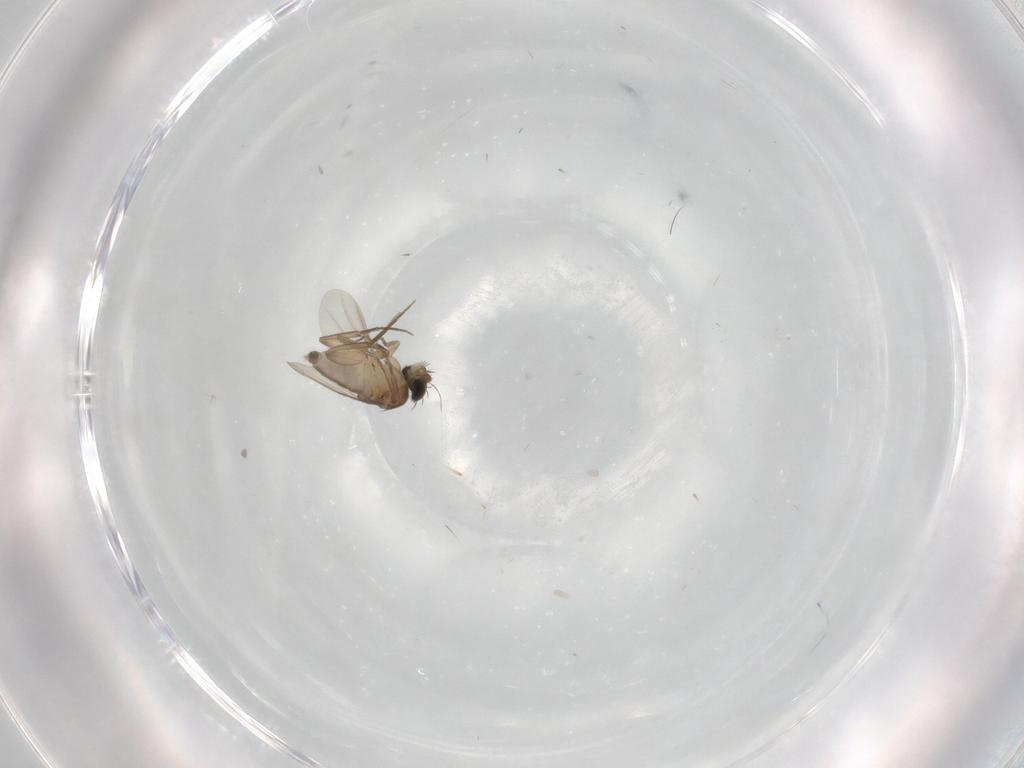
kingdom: Animalia
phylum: Arthropoda
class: Insecta
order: Diptera
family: Phoridae
